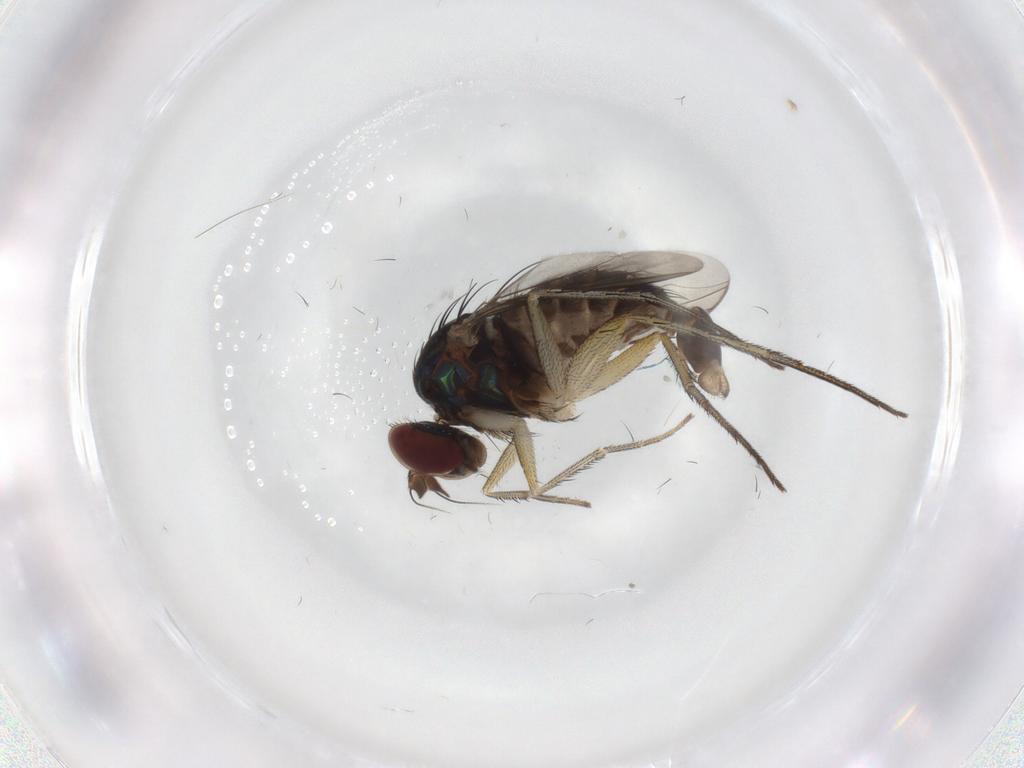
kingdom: Animalia
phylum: Arthropoda
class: Insecta
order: Diptera
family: Dolichopodidae
